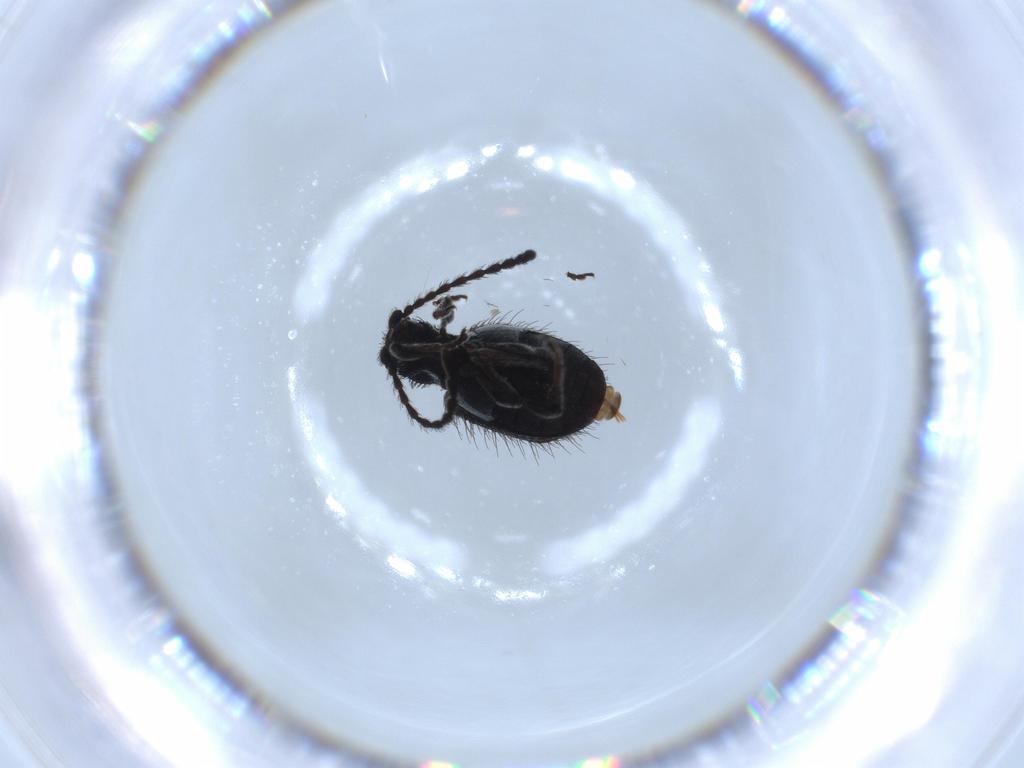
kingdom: Animalia
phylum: Arthropoda
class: Insecta
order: Coleoptera
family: Ptinidae
